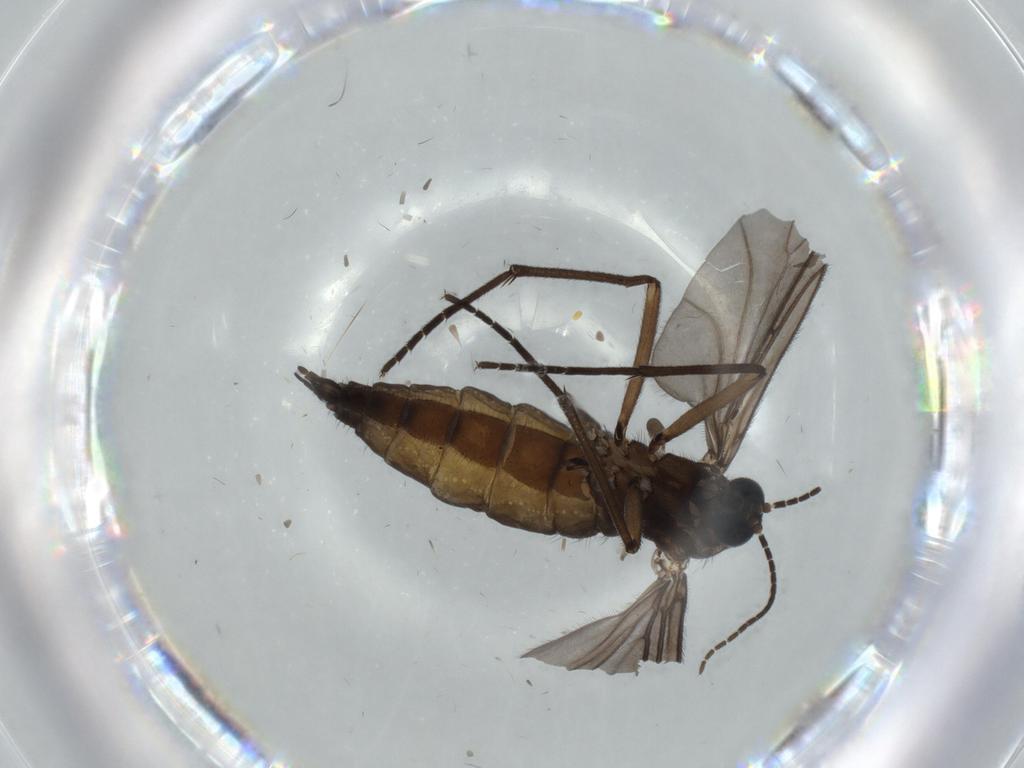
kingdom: Animalia
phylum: Arthropoda
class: Insecta
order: Diptera
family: Sciaridae
